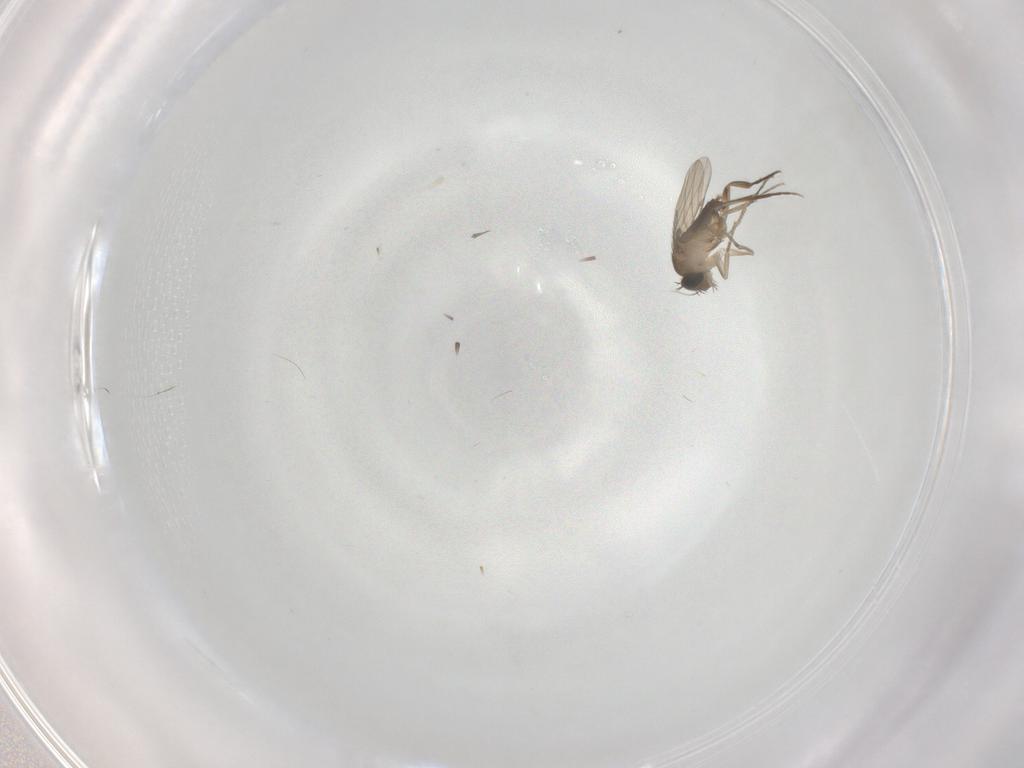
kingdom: Animalia
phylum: Arthropoda
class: Insecta
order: Diptera
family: Phoridae
